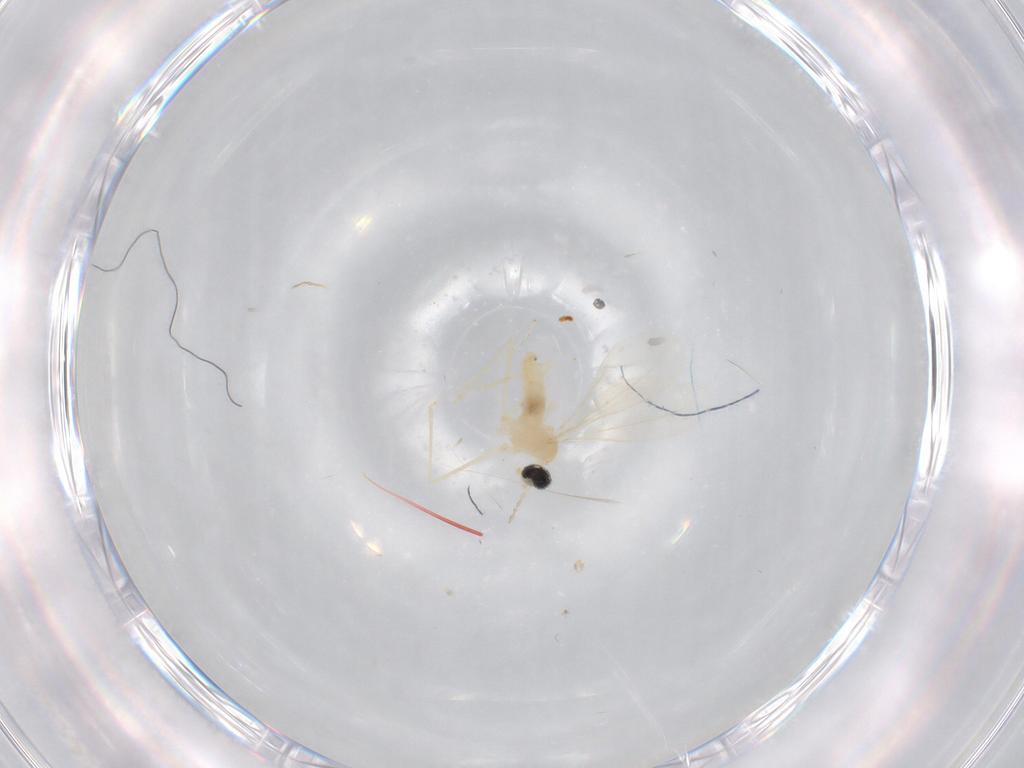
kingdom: Animalia
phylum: Arthropoda
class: Insecta
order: Diptera
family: Cecidomyiidae
